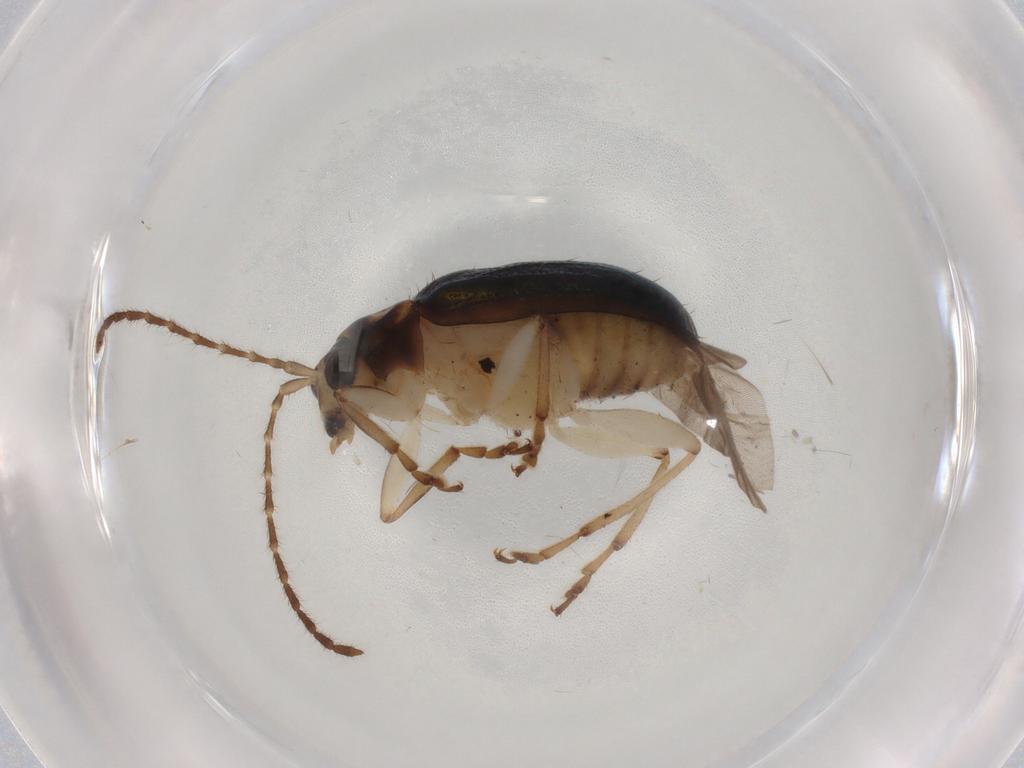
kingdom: Animalia
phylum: Arthropoda
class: Insecta
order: Coleoptera
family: Chrysomelidae
